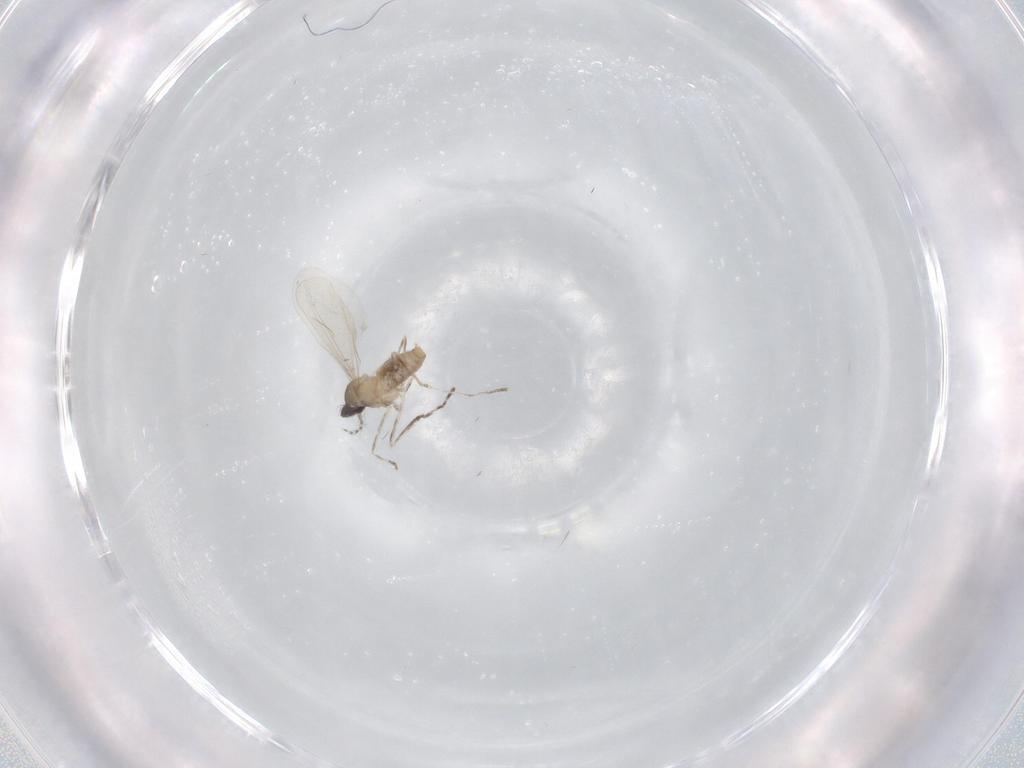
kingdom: Animalia
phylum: Arthropoda
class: Insecta
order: Diptera
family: Cecidomyiidae
